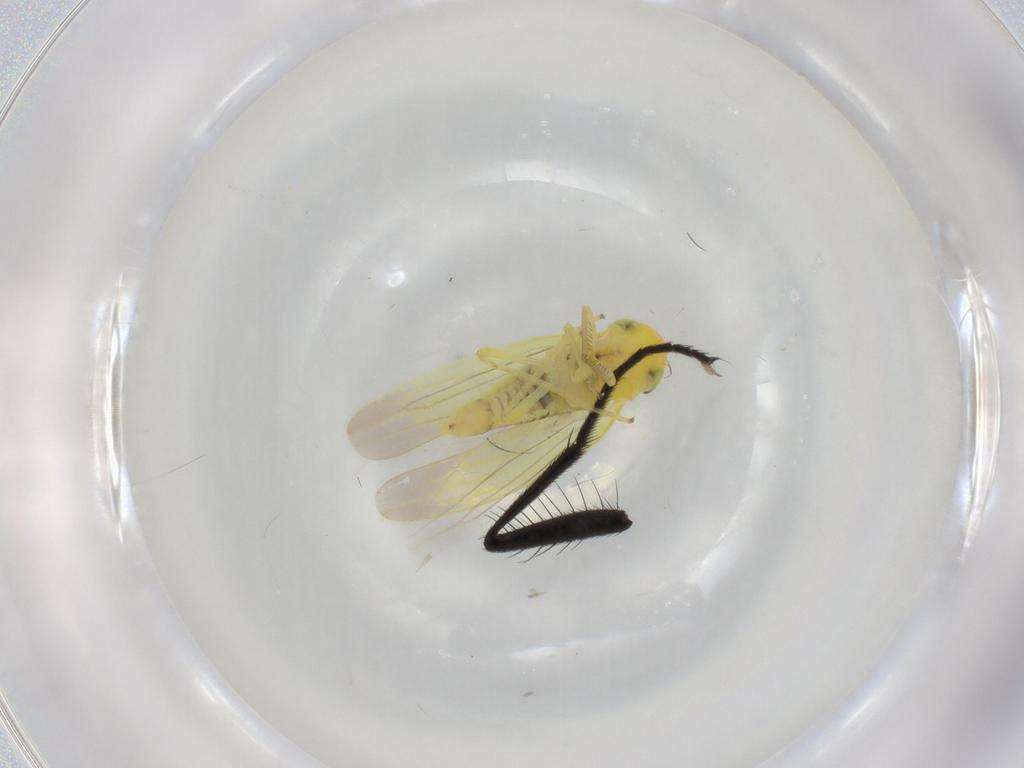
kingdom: Animalia
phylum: Arthropoda
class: Insecta
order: Hemiptera
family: Cicadellidae
